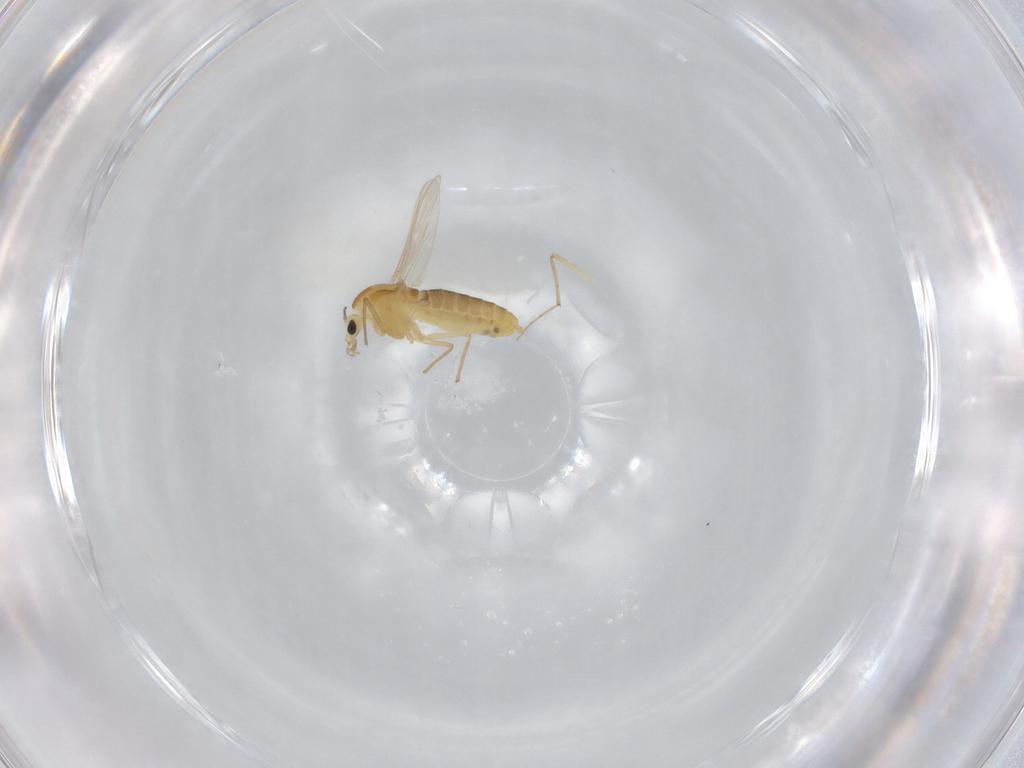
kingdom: Animalia
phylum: Arthropoda
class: Insecta
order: Diptera
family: Chironomidae
